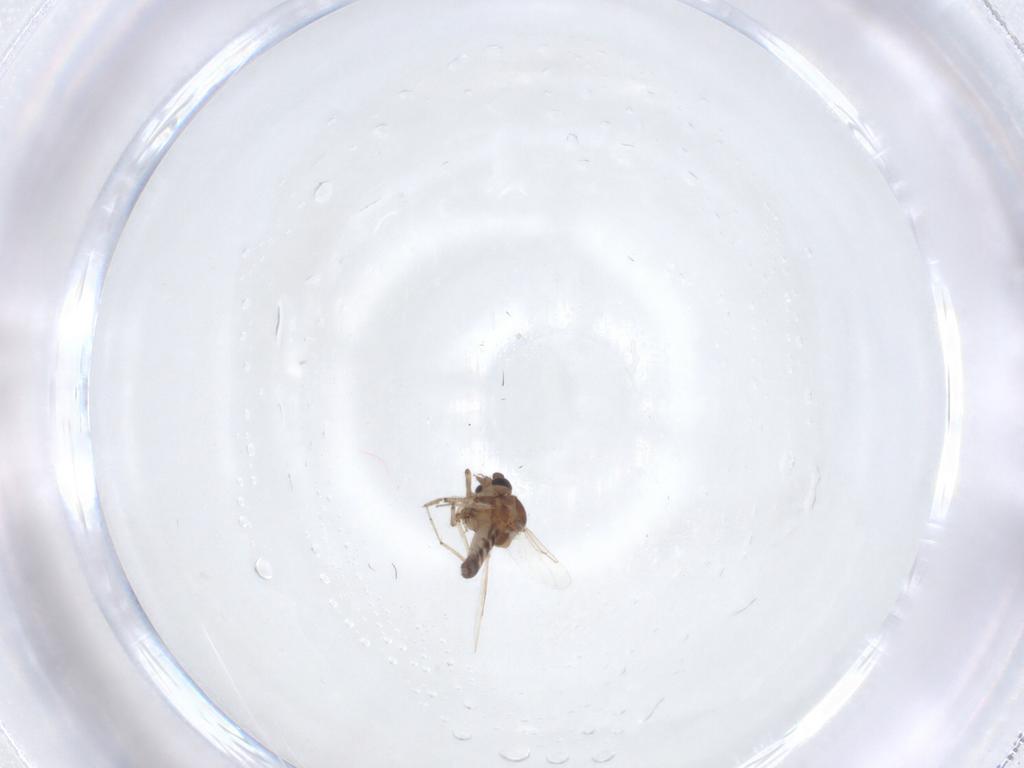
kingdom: Animalia
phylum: Arthropoda
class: Insecta
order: Diptera
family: Ceratopogonidae
